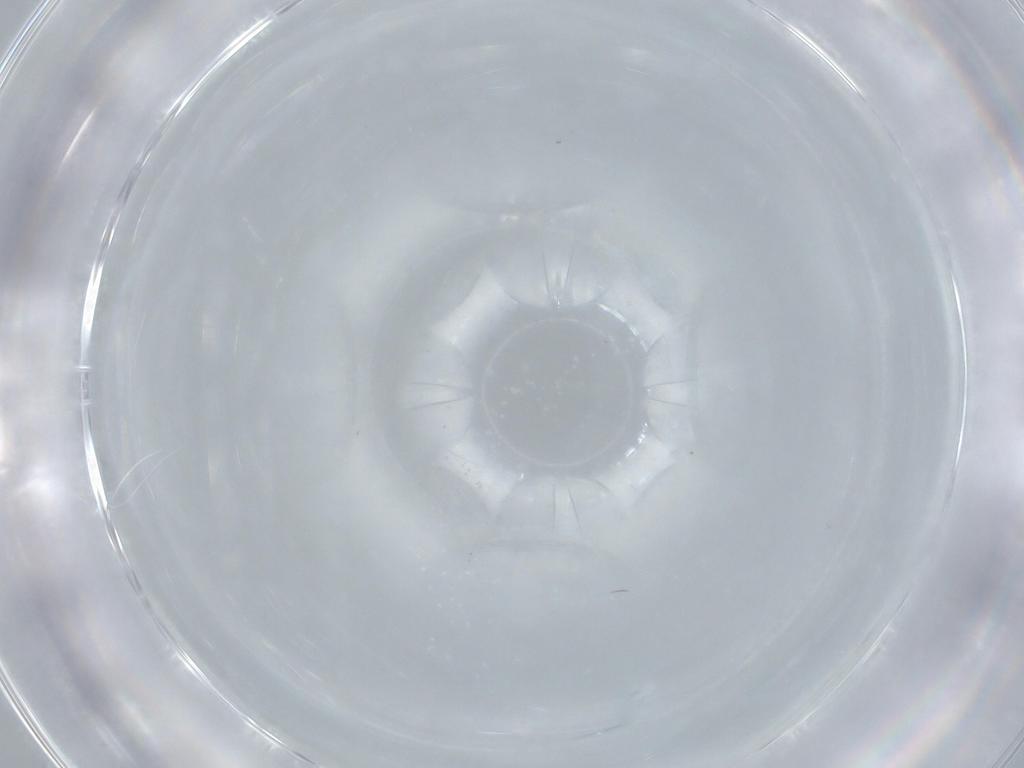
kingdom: Animalia
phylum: Arthropoda
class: Insecta
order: Diptera
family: Cecidomyiidae
